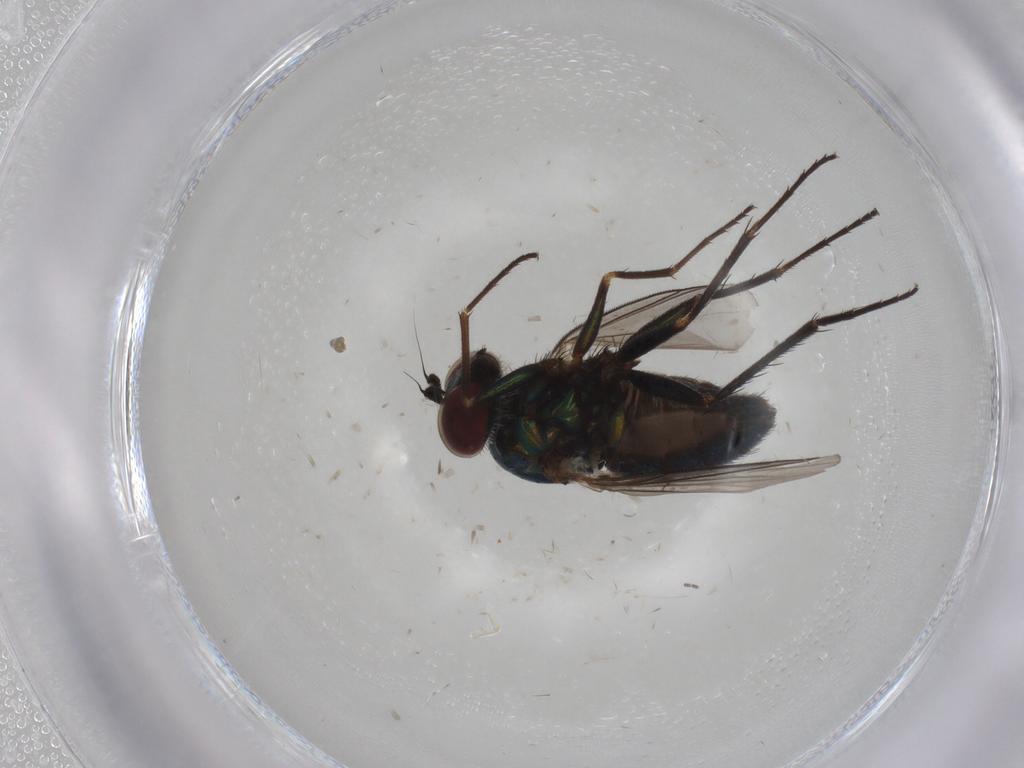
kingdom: Animalia
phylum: Arthropoda
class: Insecta
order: Diptera
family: Dolichopodidae
